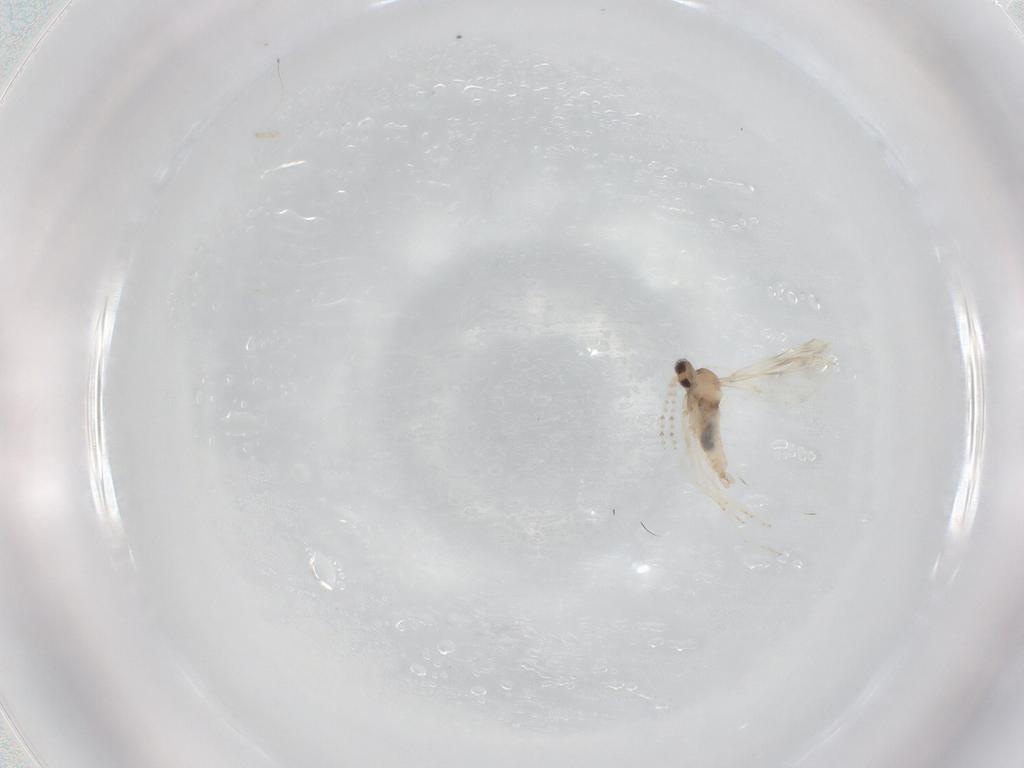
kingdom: Animalia
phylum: Arthropoda
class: Insecta
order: Diptera
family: Cecidomyiidae
